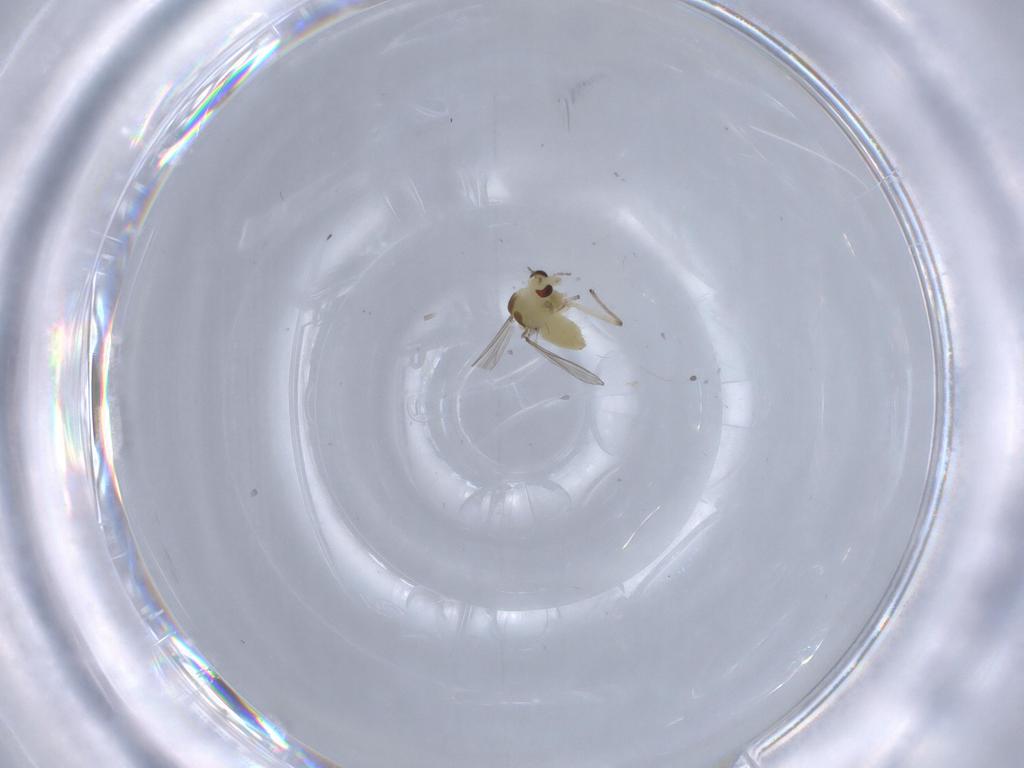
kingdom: Animalia
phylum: Arthropoda
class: Insecta
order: Diptera
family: Chironomidae
